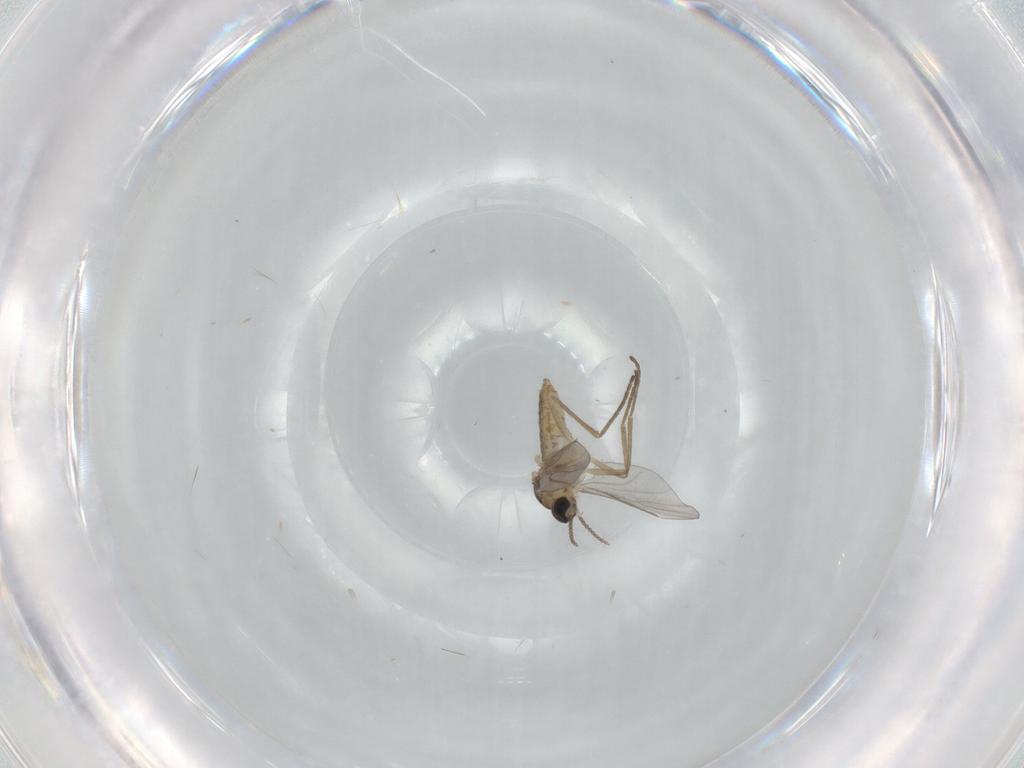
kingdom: Animalia
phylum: Arthropoda
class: Insecta
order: Diptera
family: Cecidomyiidae
